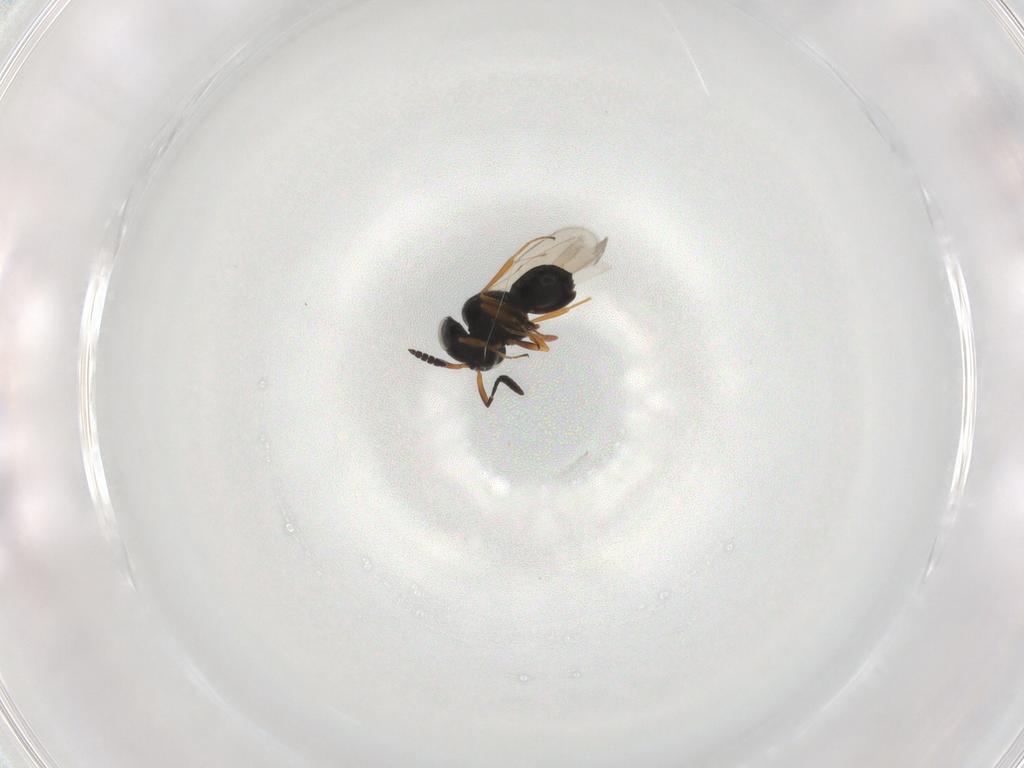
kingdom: Animalia
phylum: Arthropoda
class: Insecta
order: Hymenoptera
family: Scelionidae
